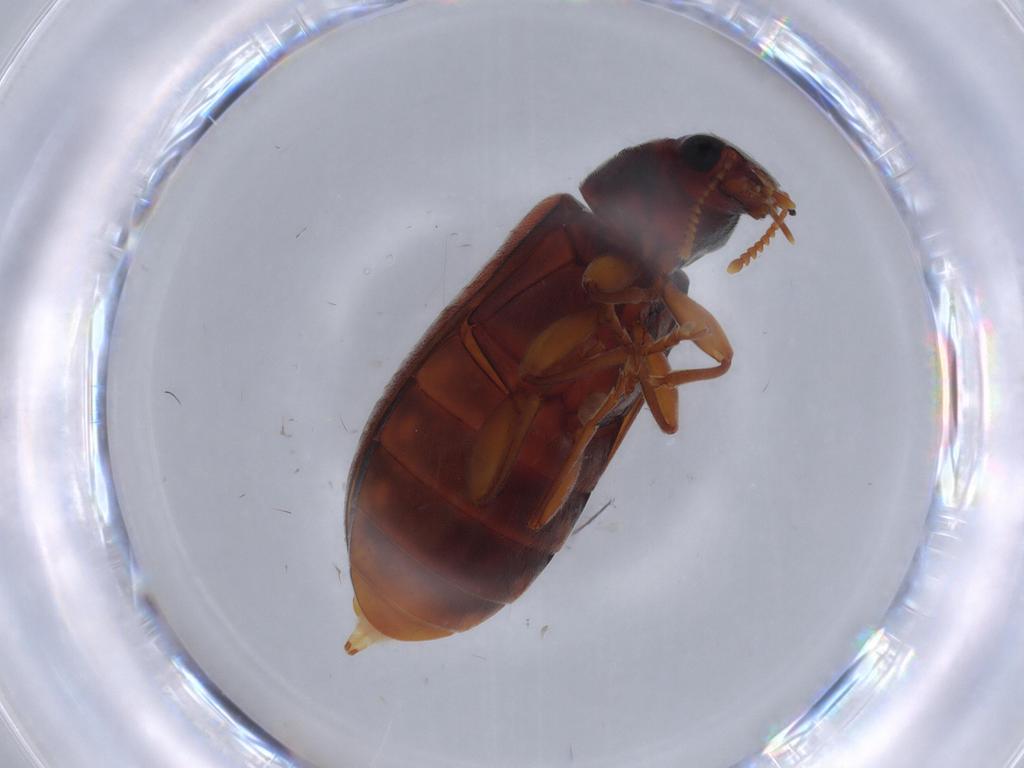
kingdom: Animalia
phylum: Arthropoda
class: Insecta
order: Coleoptera
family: Mycteridae
